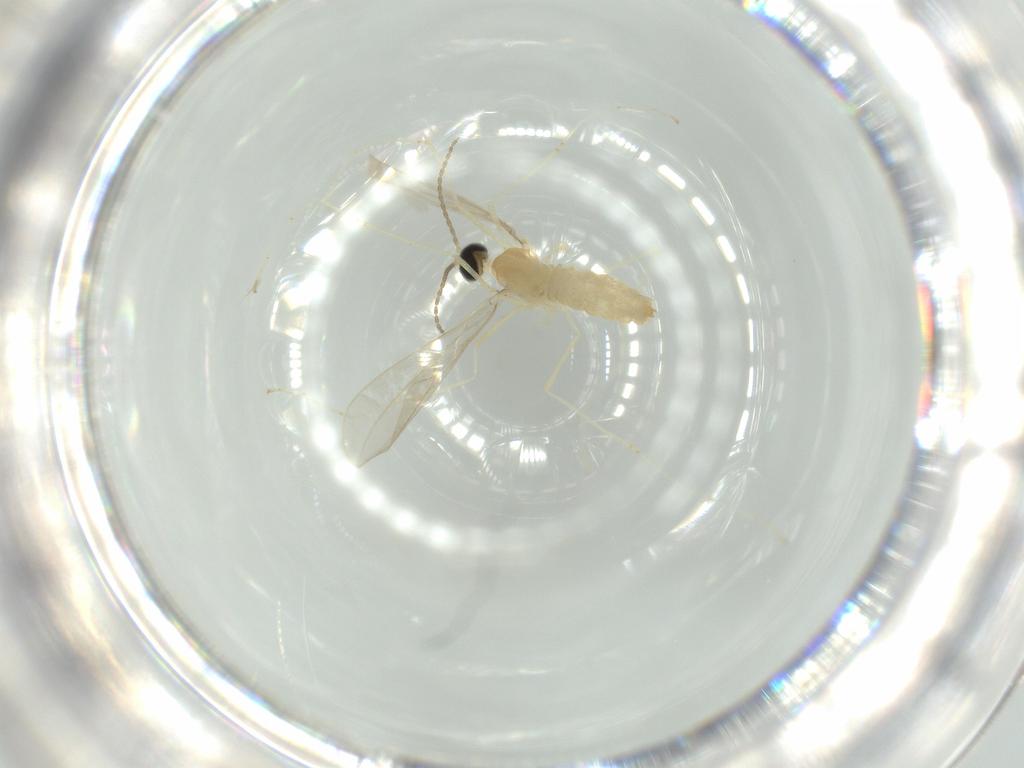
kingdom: Animalia
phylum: Arthropoda
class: Insecta
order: Diptera
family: Cecidomyiidae
